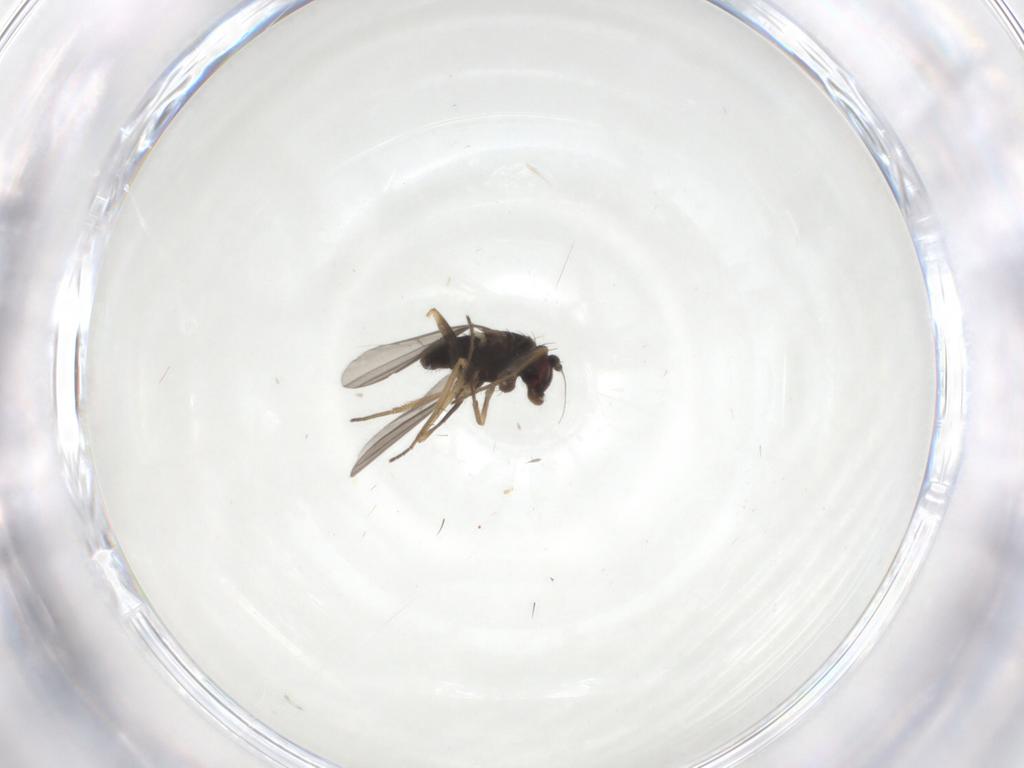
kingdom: Animalia
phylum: Arthropoda
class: Insecta
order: Diptera
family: Dolichopodidae
